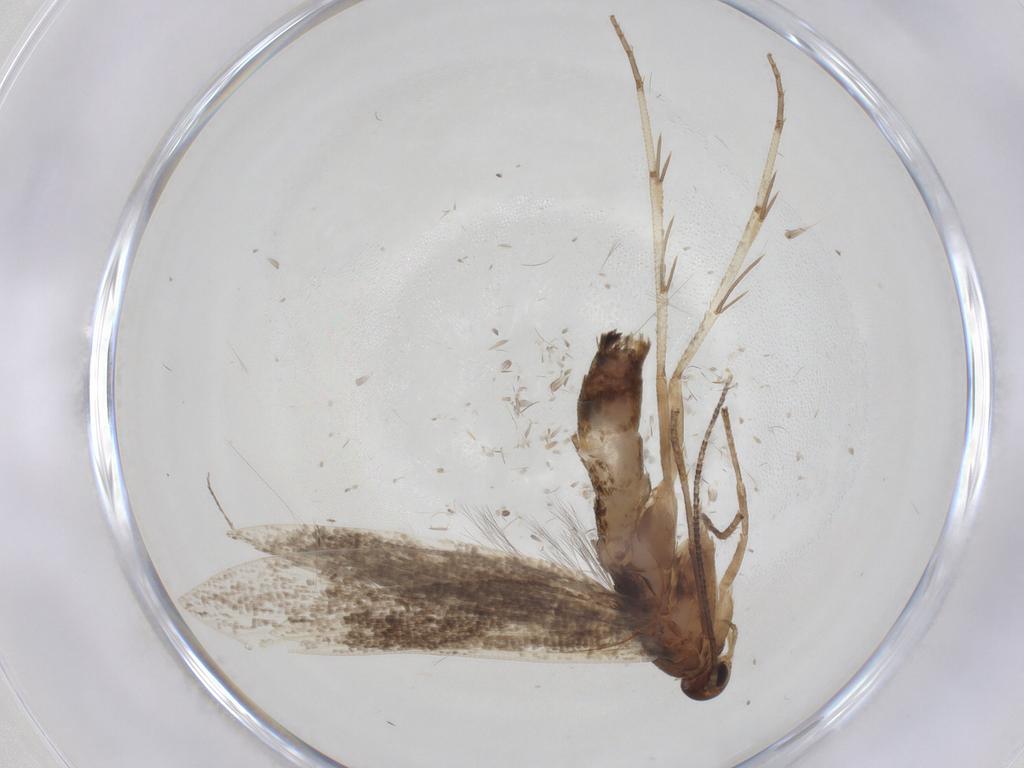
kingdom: Animalia
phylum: Arthropoda
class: Insecta
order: Lepidoptera
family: Erebidae
